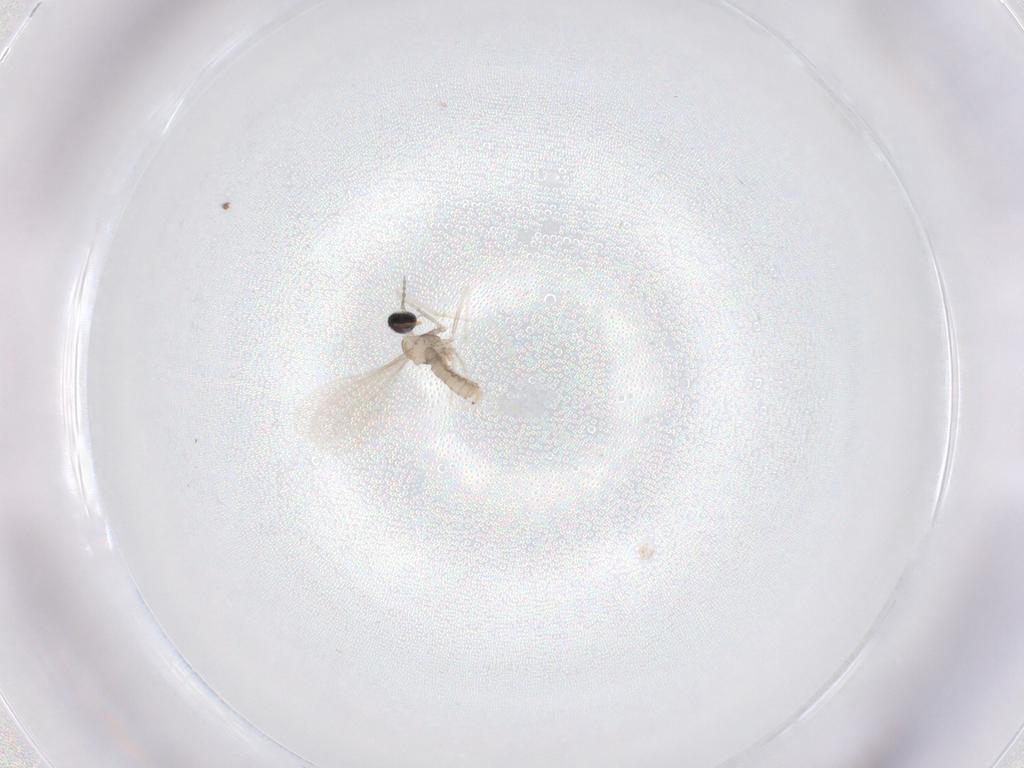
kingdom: Animalia
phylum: Arthropoda
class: Insecta
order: Diptera
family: Cecidomyiidae
